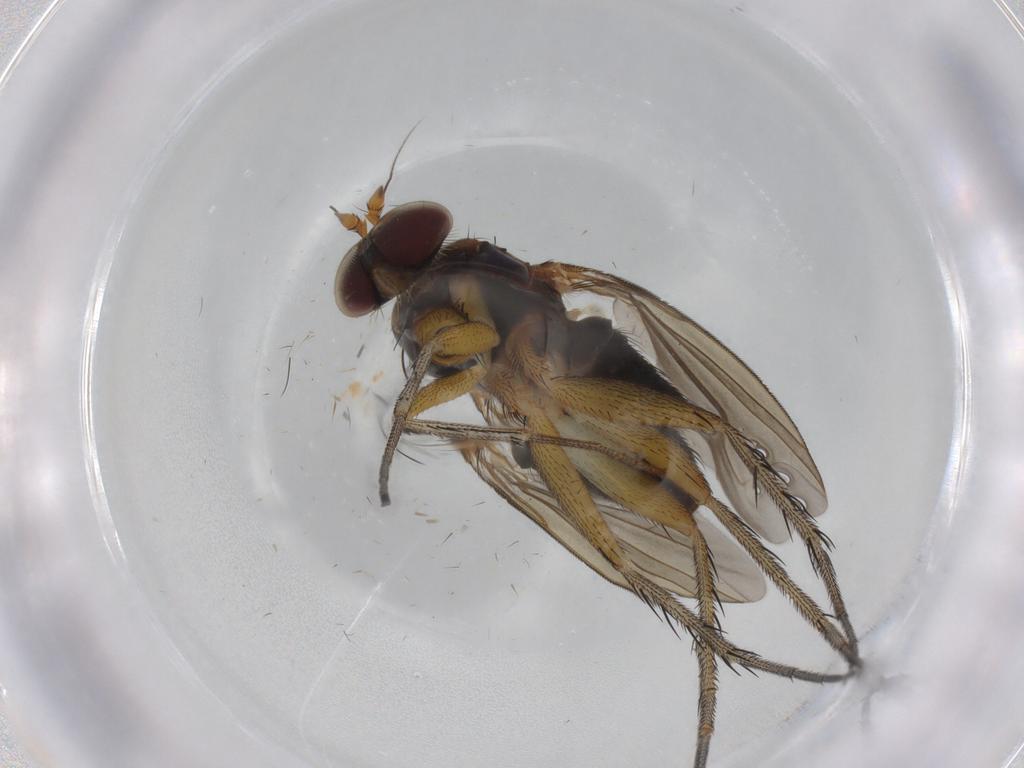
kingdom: Animalia
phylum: Arthropoda
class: Insecta
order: Diptera
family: Dolichopodidae
